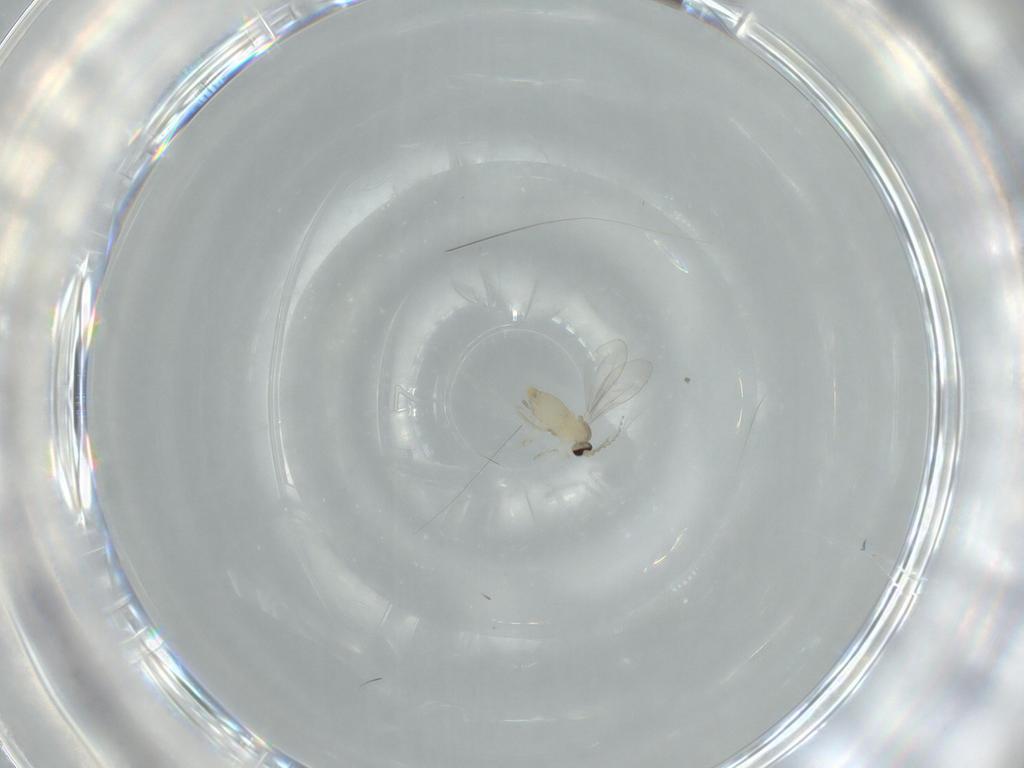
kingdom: Animalia
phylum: Arthropoda
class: Insecta
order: Diptera
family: Cecidomyiidae
